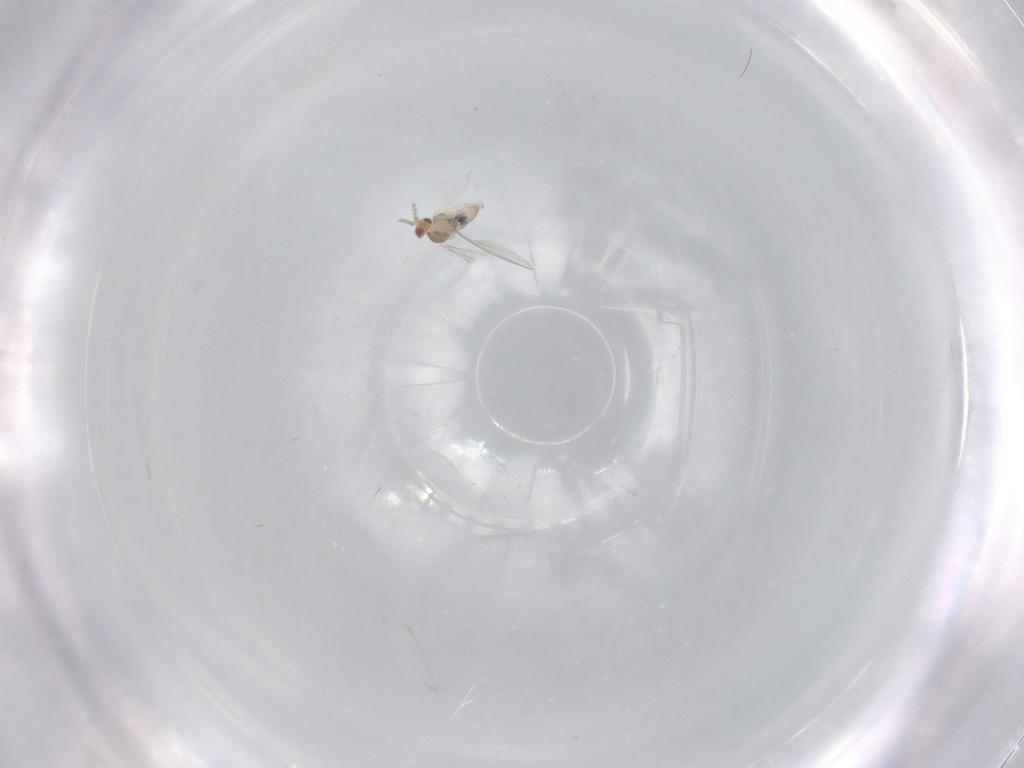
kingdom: Animalia
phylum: Arthropoda
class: Insecta
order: Diptera
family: Cecidomyiidae
